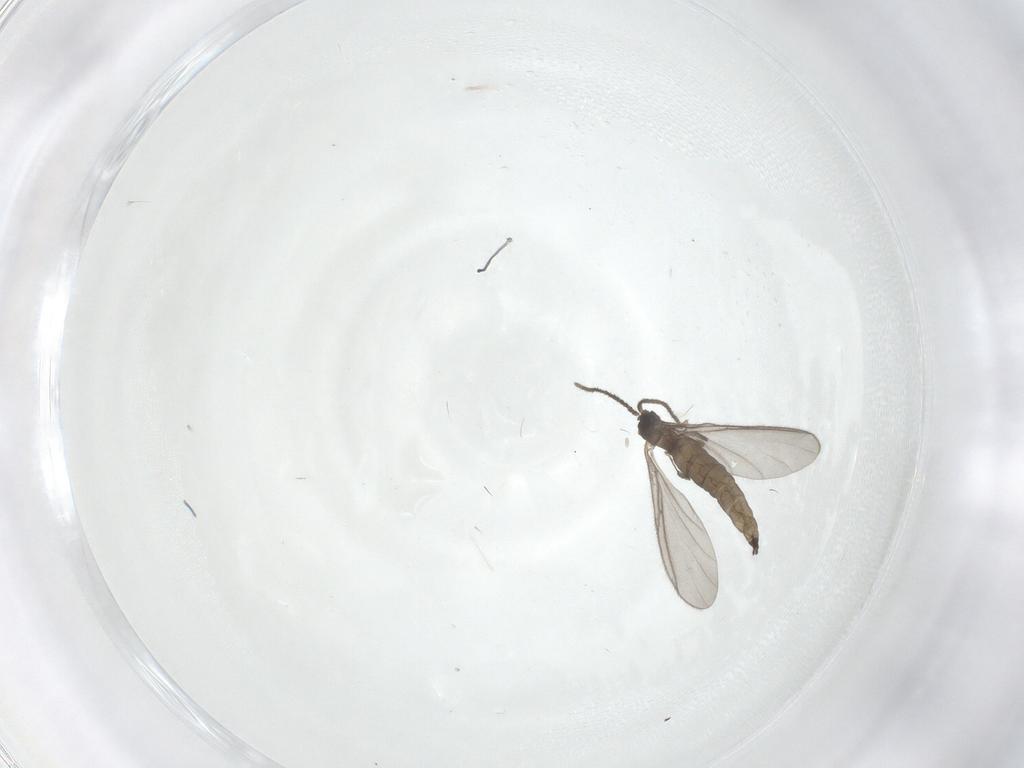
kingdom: Animalia
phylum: Arthropoda
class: Insecta
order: Diptera
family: Sciaridae
